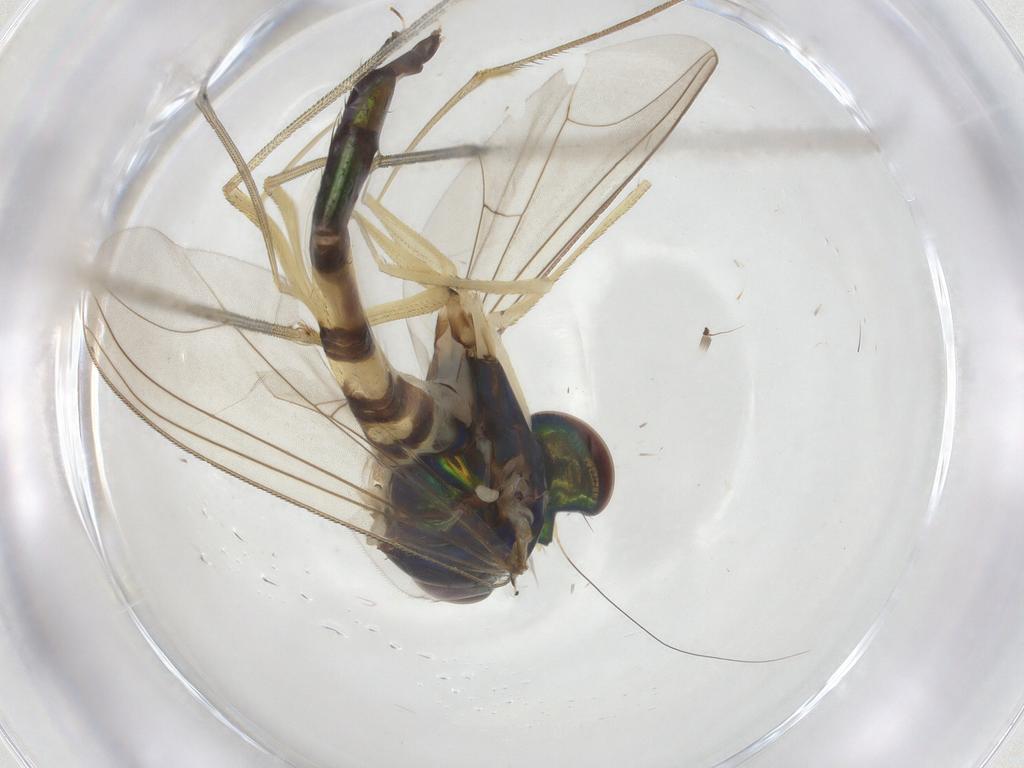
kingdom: Animalia
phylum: Arthropoda
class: Insecta
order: Diptera
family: Dolichopodidae
